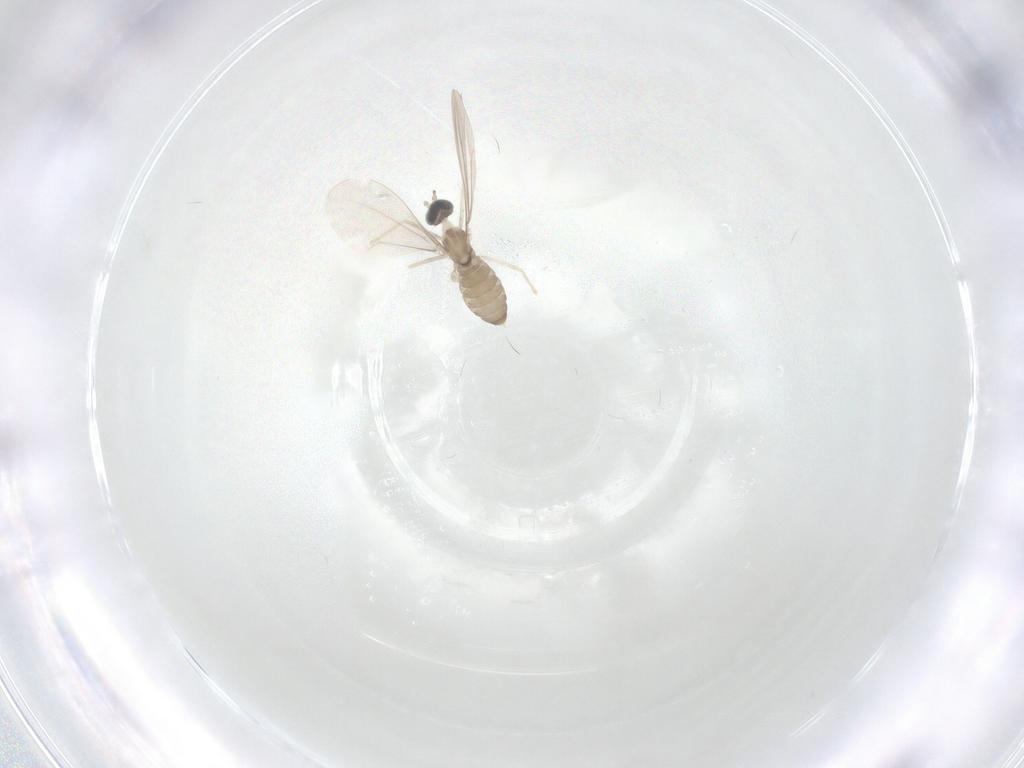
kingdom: Animalia
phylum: Arthropoda
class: Insecta
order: Diptera
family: Cecidomyiidae
